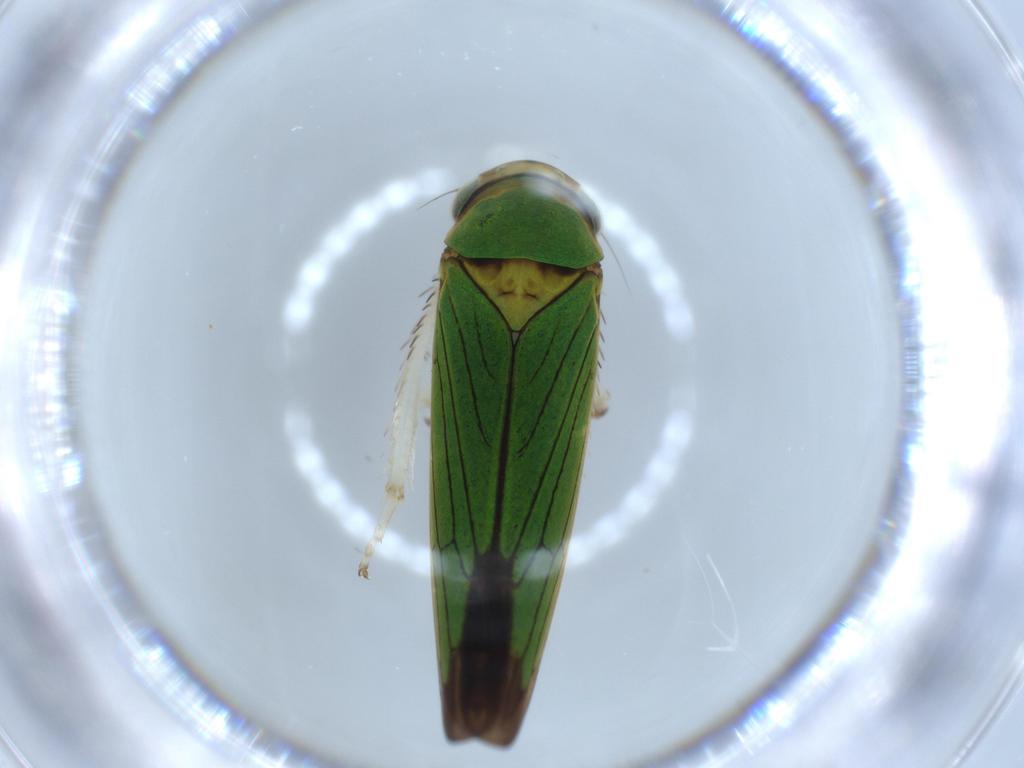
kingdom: Animalia
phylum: Arthropoda
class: Insecta
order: Hemiptera
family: Cicadellidae
